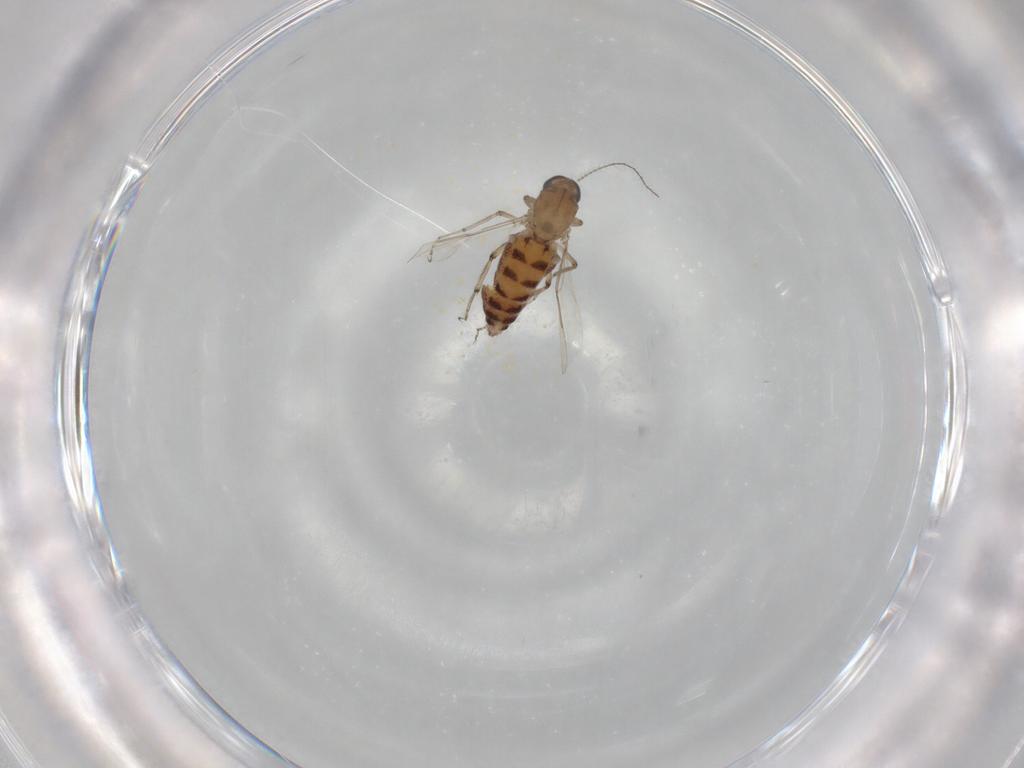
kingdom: Animalia
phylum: Arthropoda
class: Insecta
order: Diptera
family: Ceratopogonidae
